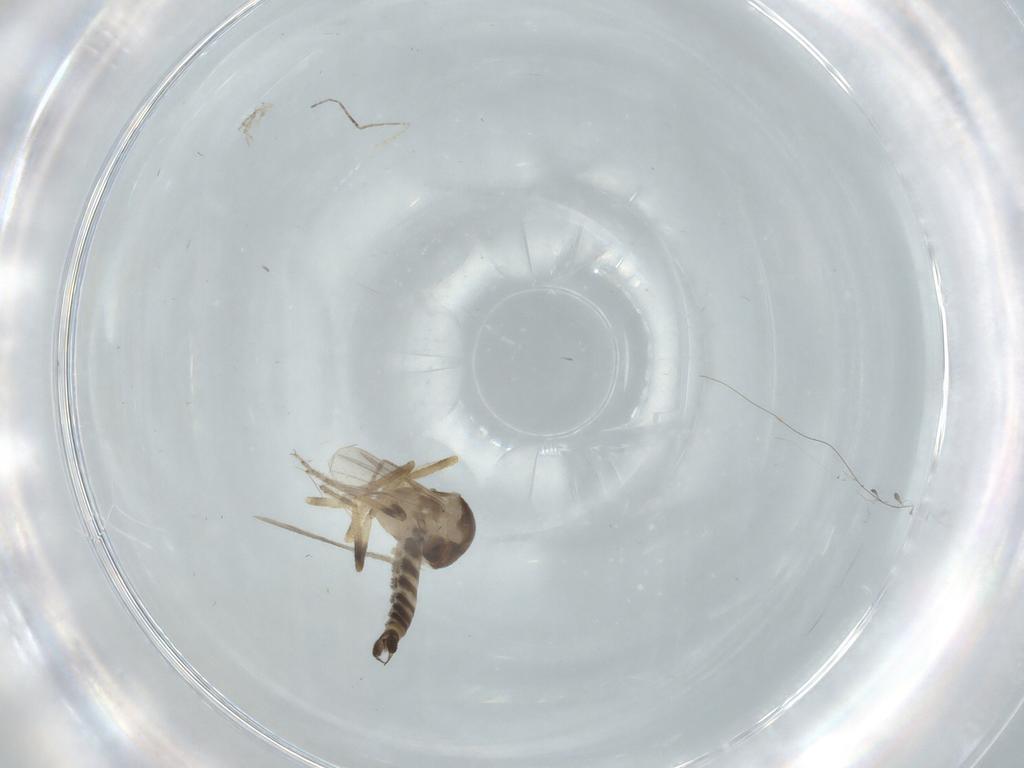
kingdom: Animalia
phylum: Arthropoda
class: Insecta
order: Diptera
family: Ceratopogonidae
